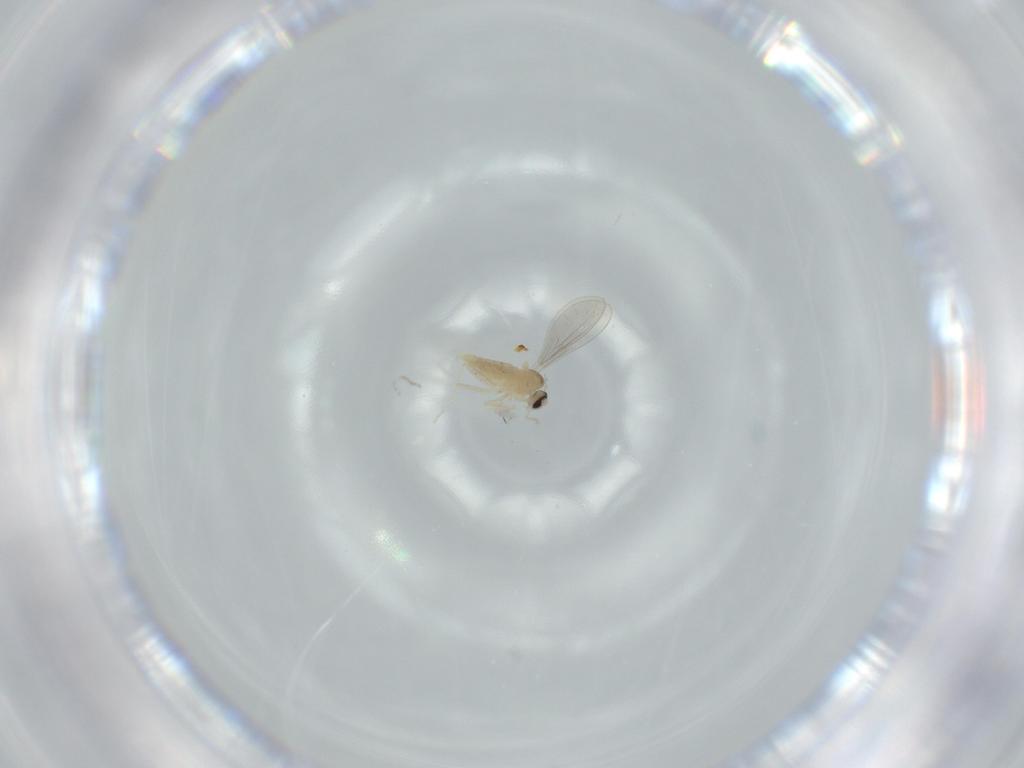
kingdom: Animalia
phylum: Arthropoda
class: Insecta
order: Diptera
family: Cecidomyiidae
